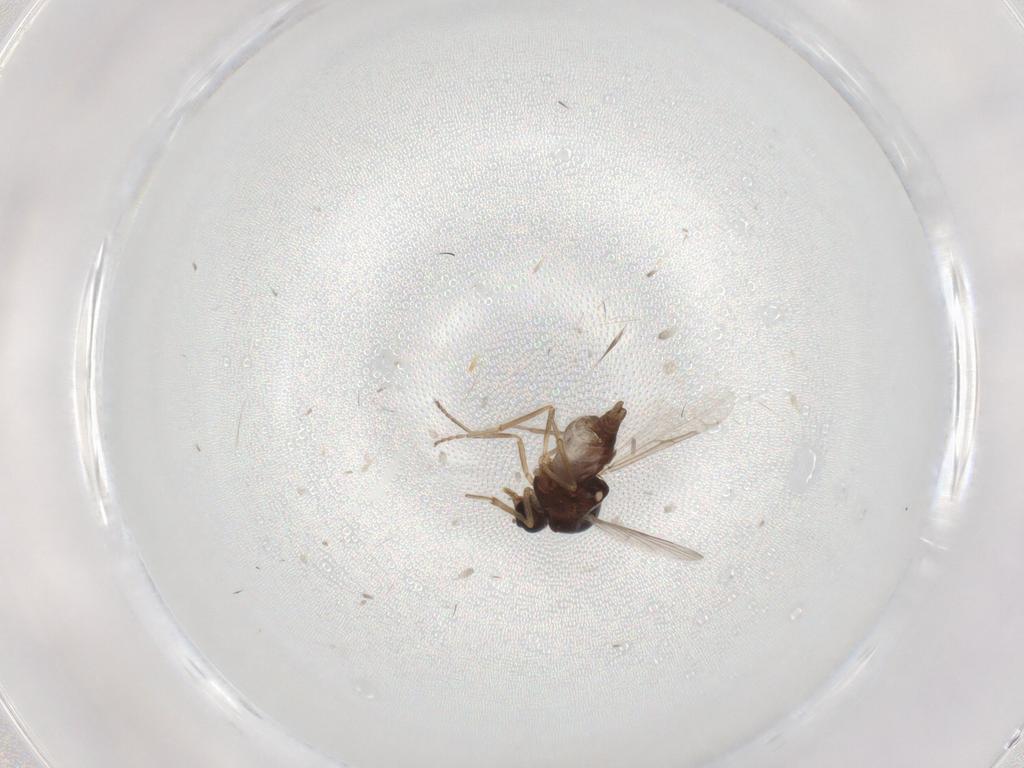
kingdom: Animalia
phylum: Arthropoda
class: Insecta
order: Diptera
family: Ceratopogonidae
